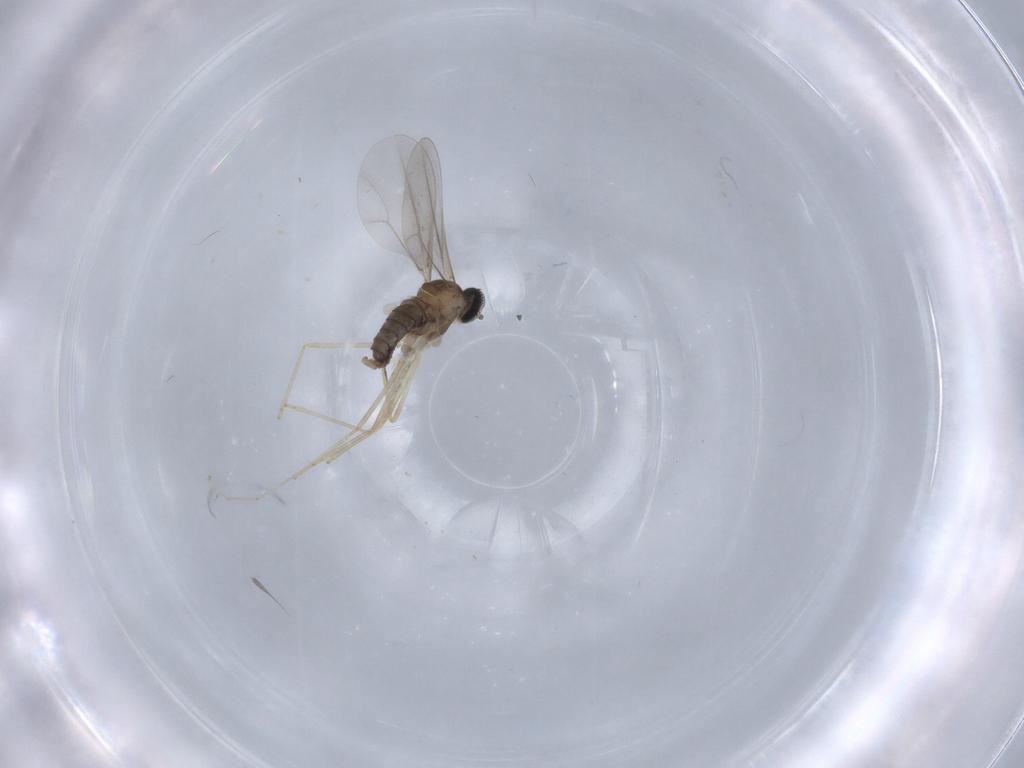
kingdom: Animalia
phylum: Arthropoda
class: Insecta
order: Diptera
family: Cecidomyiidae
